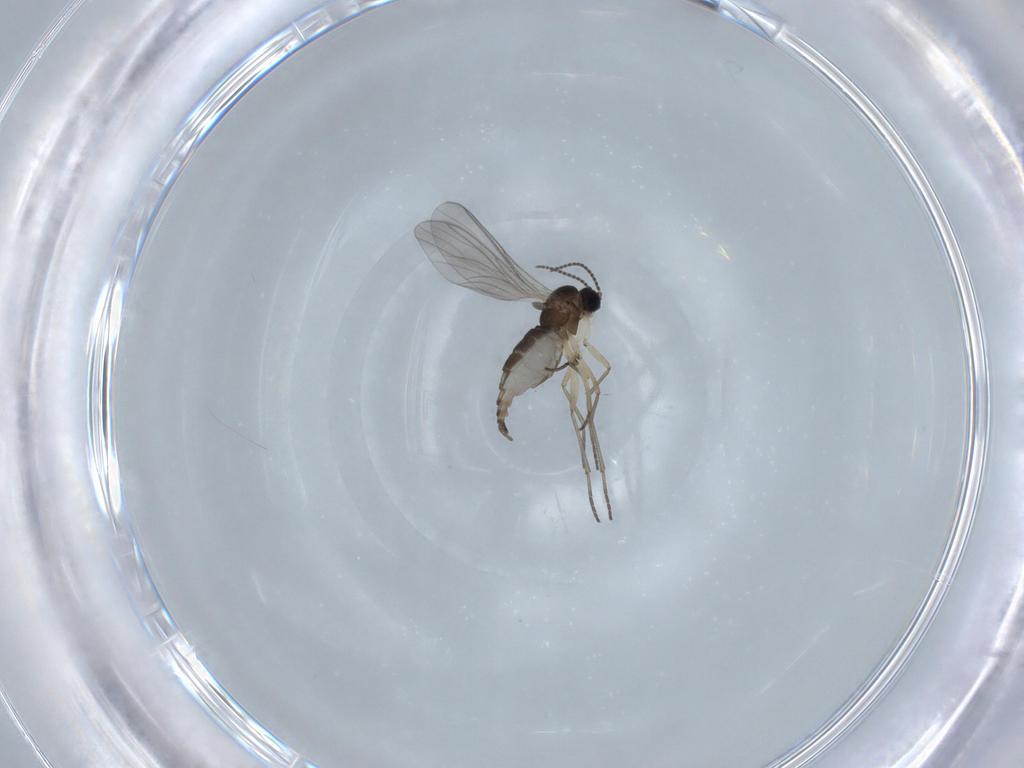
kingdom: Animalia
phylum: Arthropoda
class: Insecta
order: Diptera
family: Sciaridae
